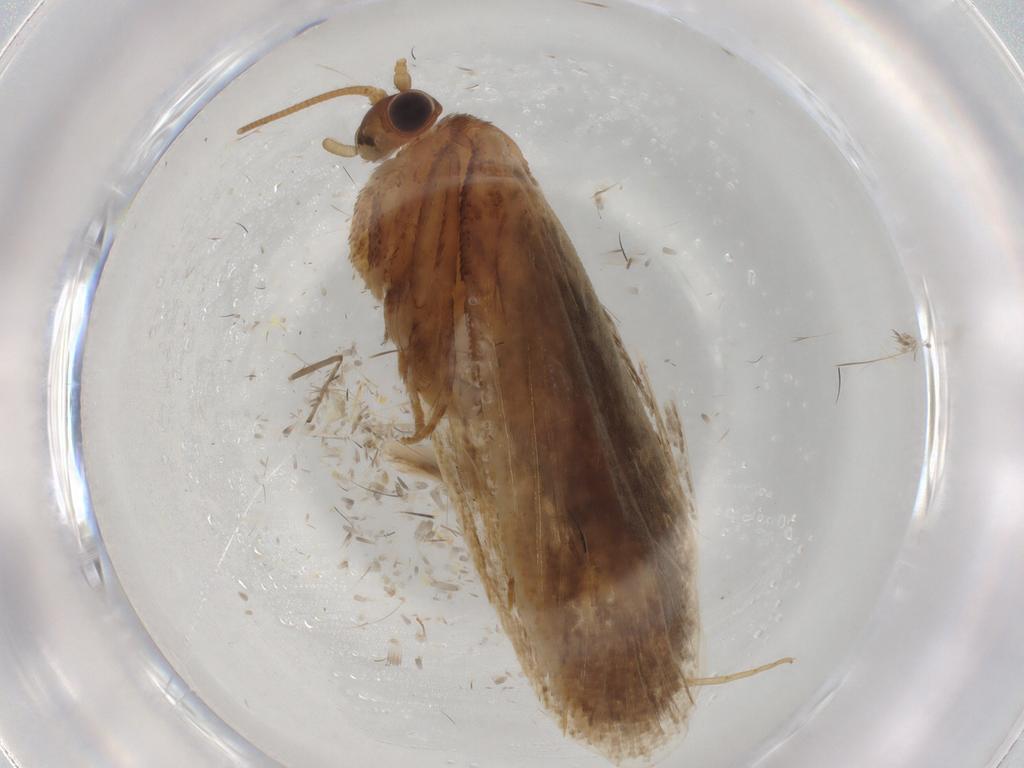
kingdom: Animalia
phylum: Arthropoda
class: Insecta
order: Lepidoptera
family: Nepticulidae
